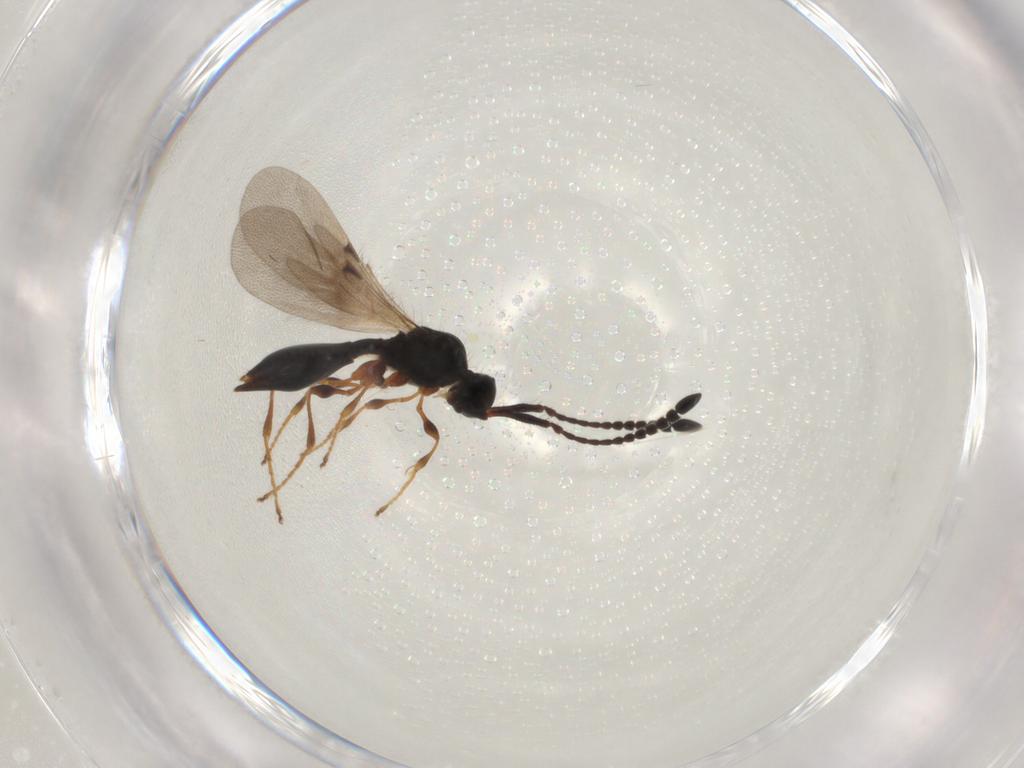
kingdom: Animalia
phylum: Arthropoda
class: Insecta
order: Hymenoptera
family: Diapriidae
